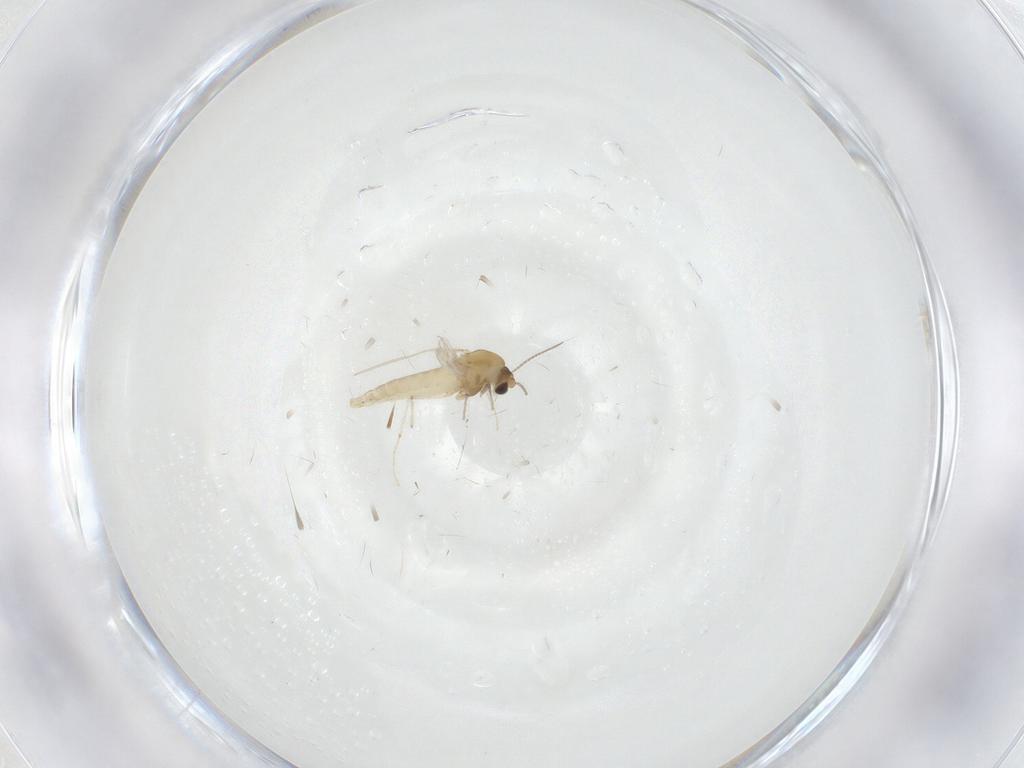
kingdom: Animalia
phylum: Arthropoda
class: Insecta
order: Diptera
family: Chironomidae
